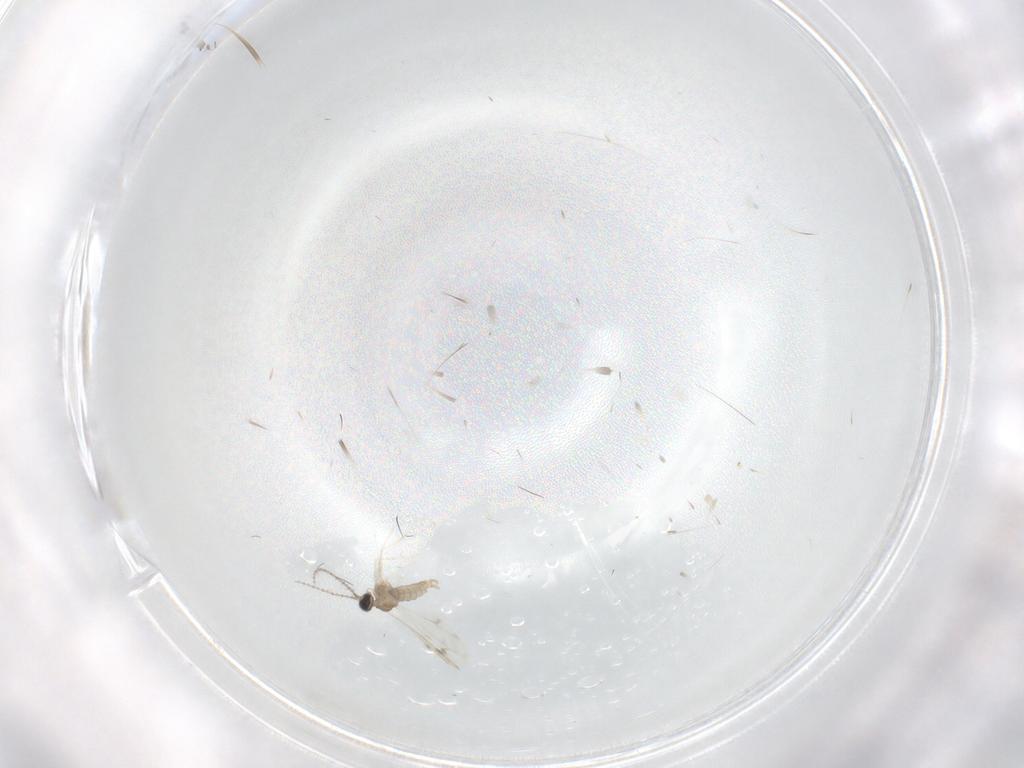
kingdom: Animalia
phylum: Arthropoda
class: Insecta
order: Diptera
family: Cecidomyiidae
